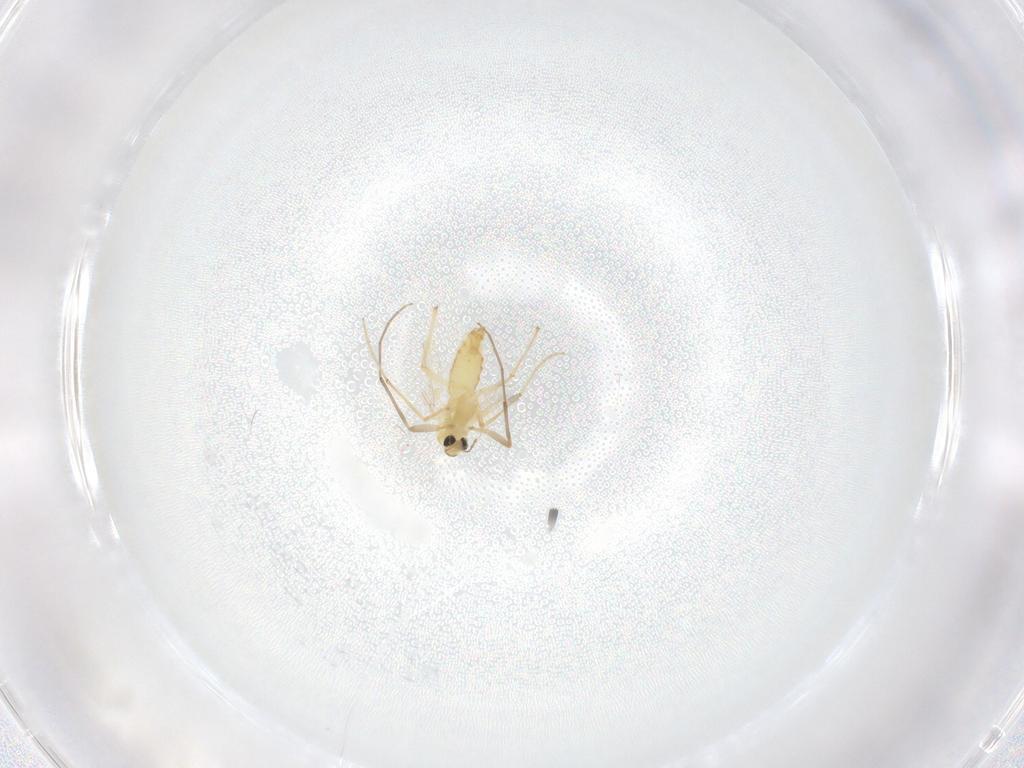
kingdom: Animalia
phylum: Arthropoda
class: Insecta
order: Diptera
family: Chironomidae
